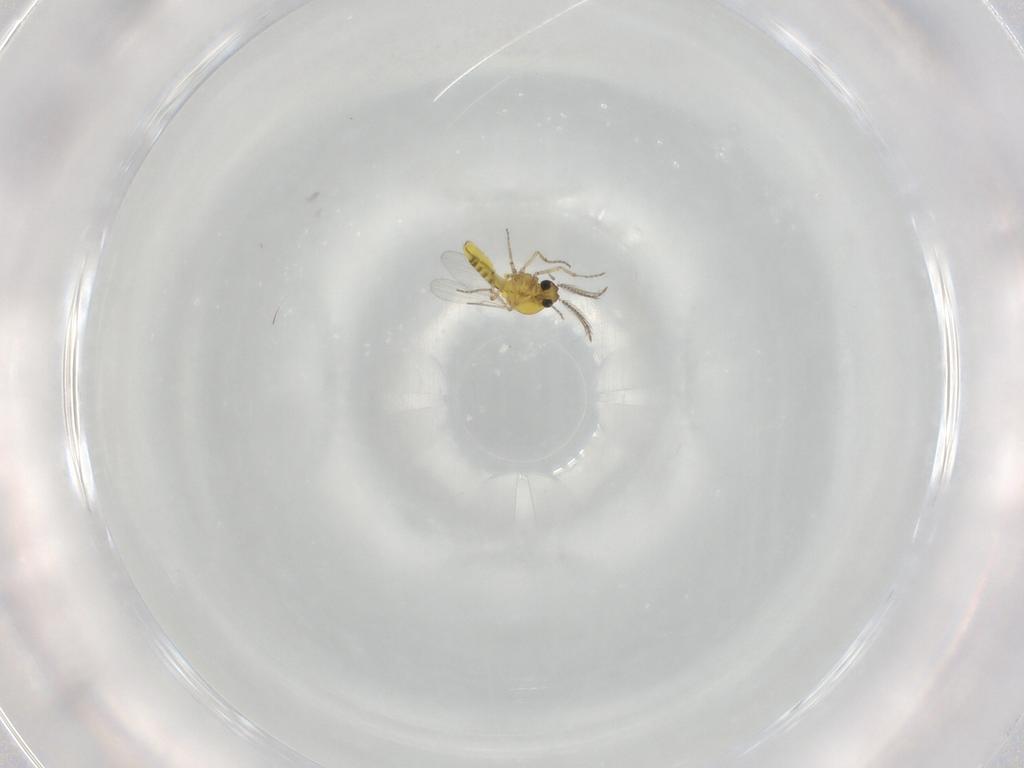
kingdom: Animalia
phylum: Arthropoda
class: Insecta
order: Diptera
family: Ceratopogonidae
